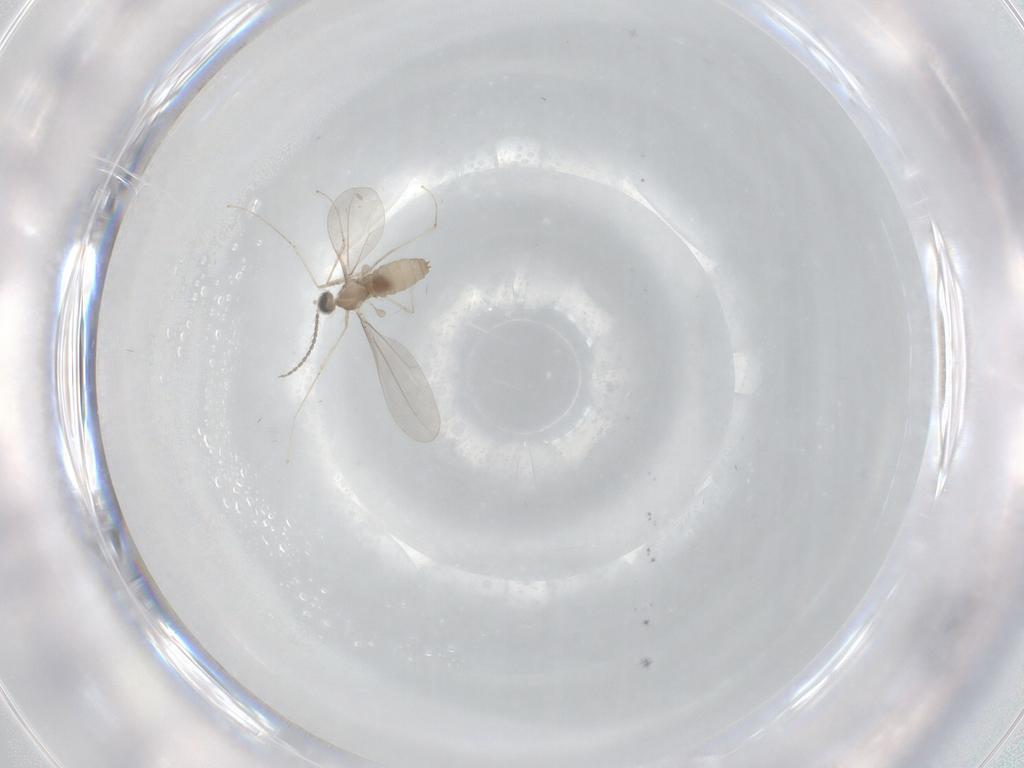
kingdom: Animalia
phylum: Arthropoda
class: Insecta
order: Diptera
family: Cecidomyiidae
